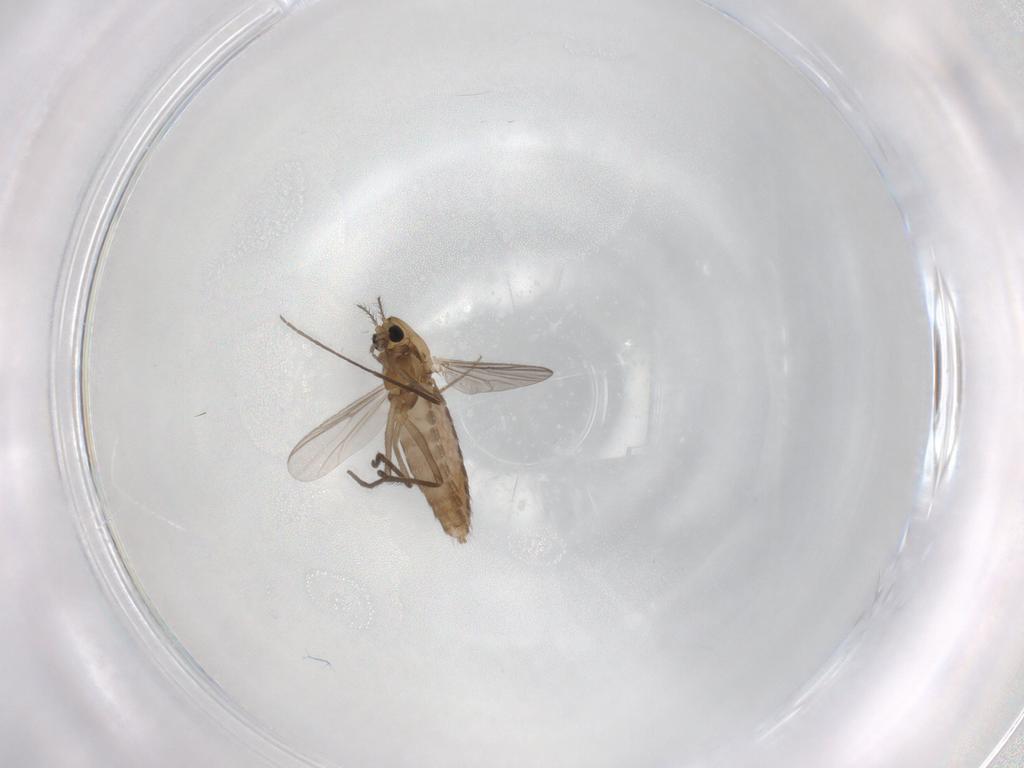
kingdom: Animalia
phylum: Arthropoda
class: Insecta
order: Diptera
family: Chironomidae
